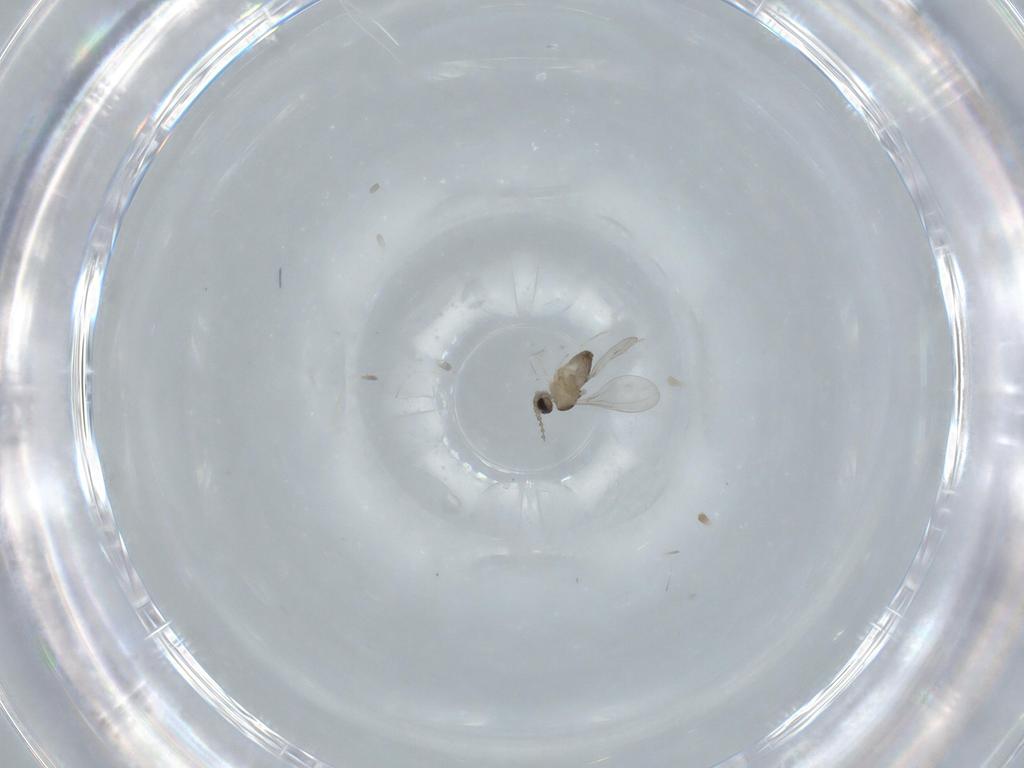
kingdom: Animalia
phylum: Arthropoda
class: Insecta
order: Diptera
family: Cecidomyiidae
